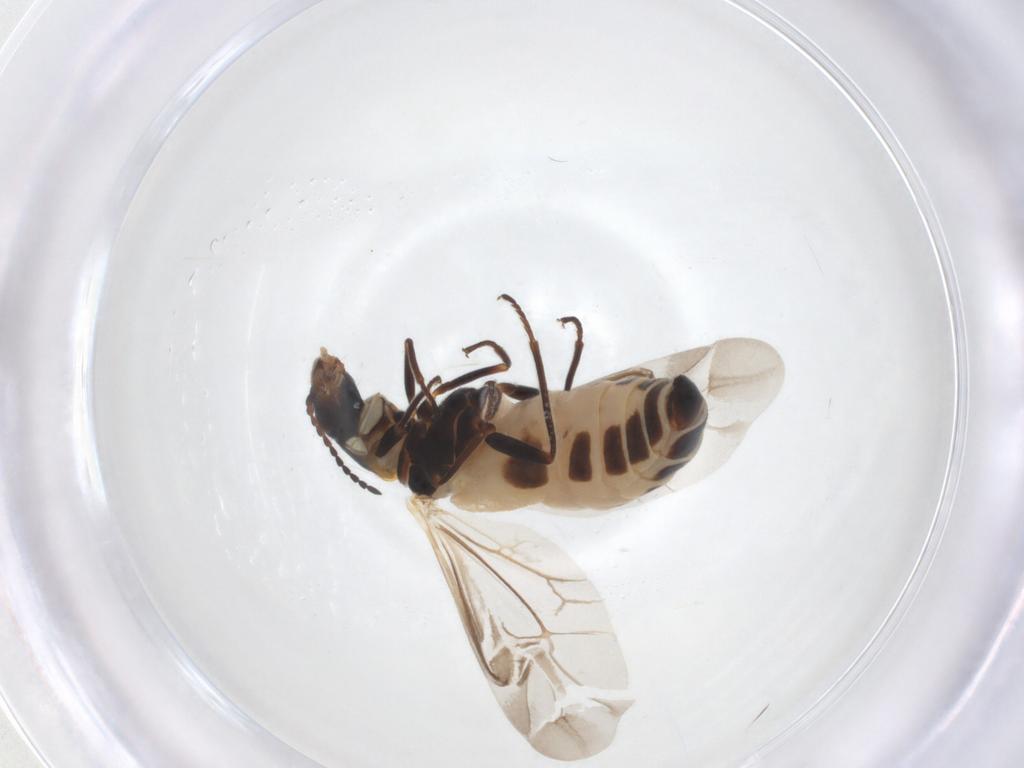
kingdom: Animalia
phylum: Arthropoda
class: Insecta
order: Coleoptera
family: Melyridae
